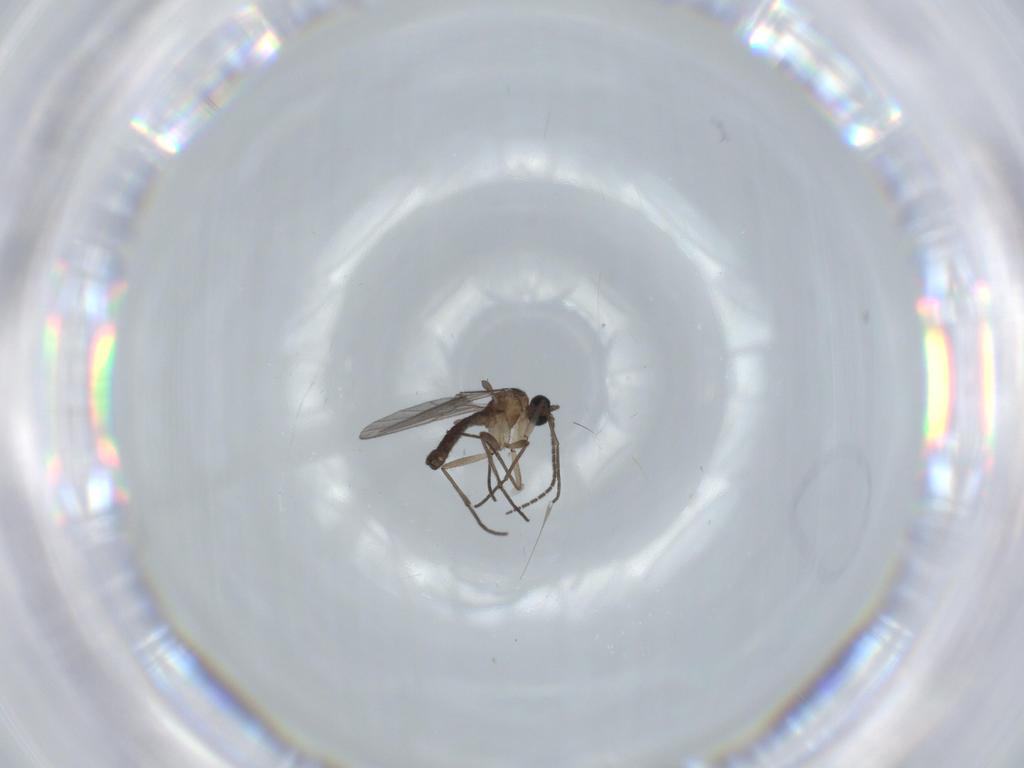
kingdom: Animalia
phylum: Arthropoda
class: Insecta
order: Diptera
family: Sciaridae
